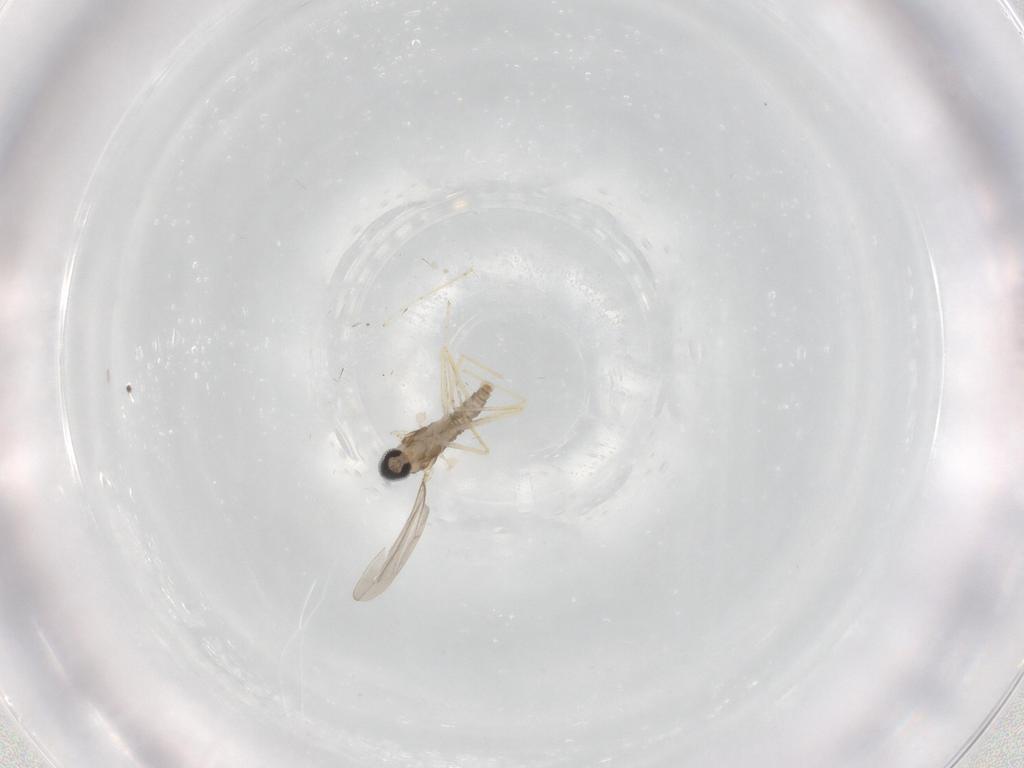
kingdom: Animalia
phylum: Arthropoda
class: Insecta
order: Diptera
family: Cecidomyiidae
